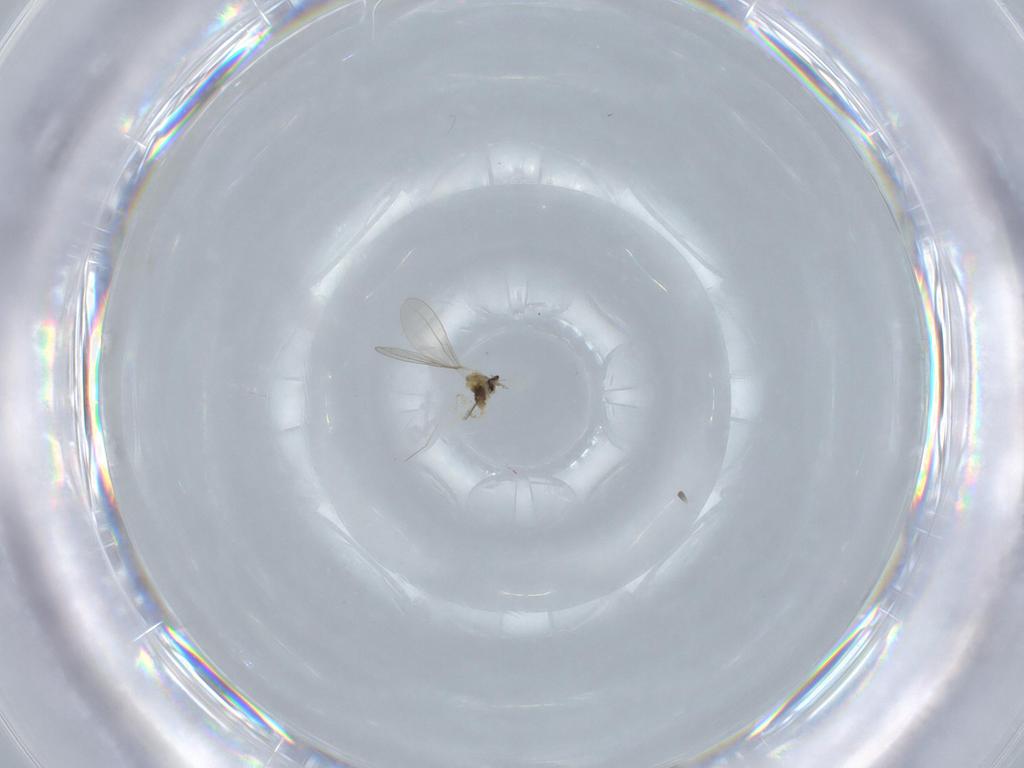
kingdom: Animalia
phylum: Arthropoda
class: Insecta
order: Diptera
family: Cecidomyiidae
